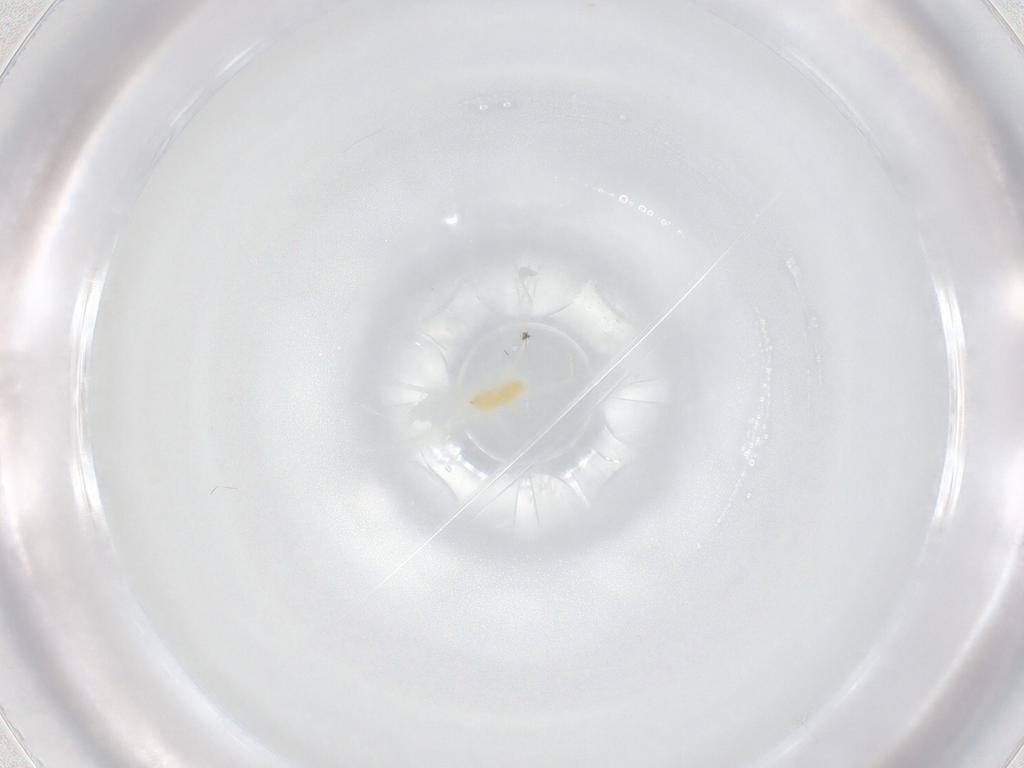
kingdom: Animalia
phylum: Arthropoda
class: Arachnida
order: Trombidiformes
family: Tetranychidae
